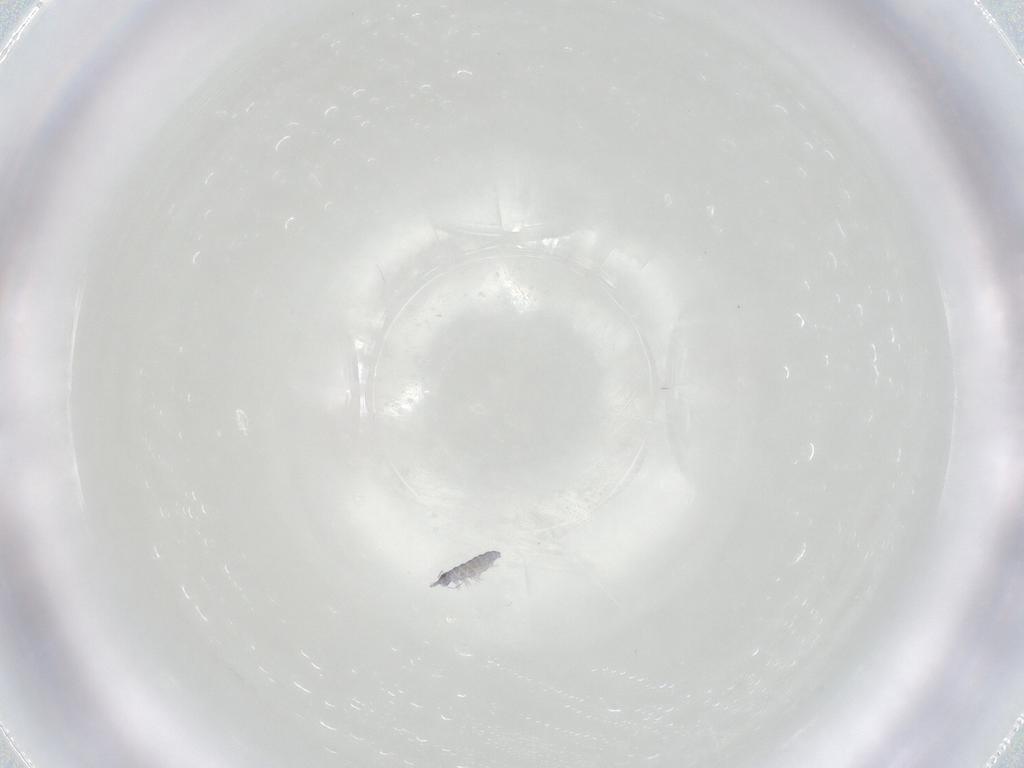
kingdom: Animalia
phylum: Arthropoda
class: Collembola
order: Poduromorpha
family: Neanuridae
